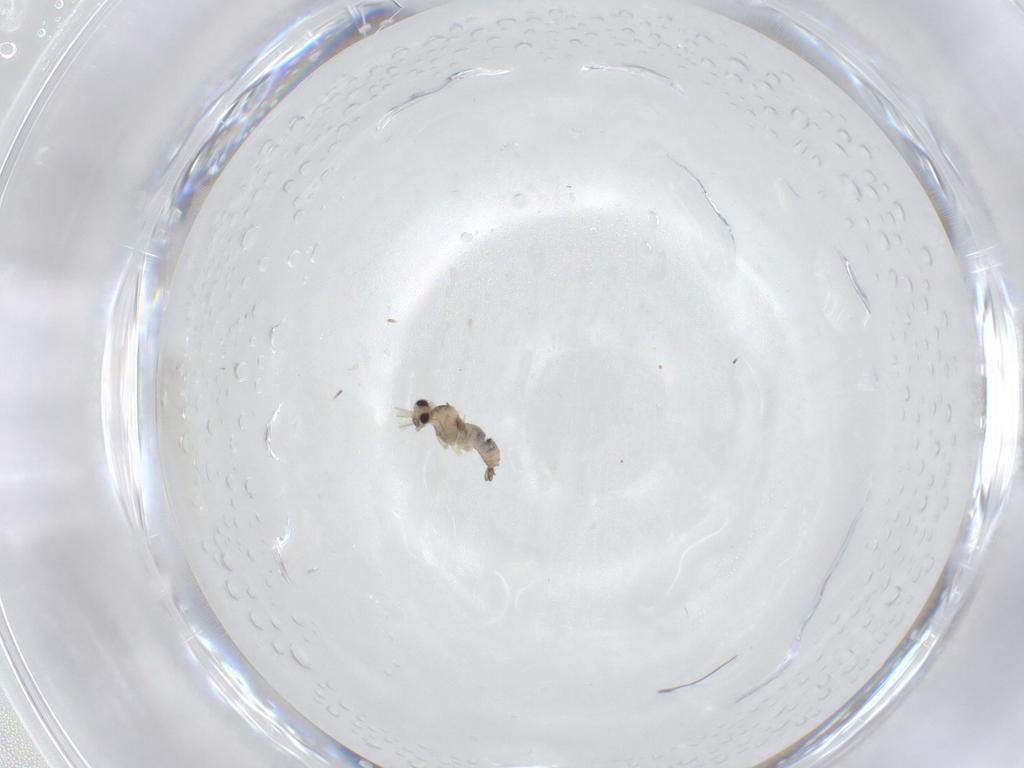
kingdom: Animalia
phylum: Arthropoda
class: Insecta
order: Diptera
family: Cecidomyiidae
